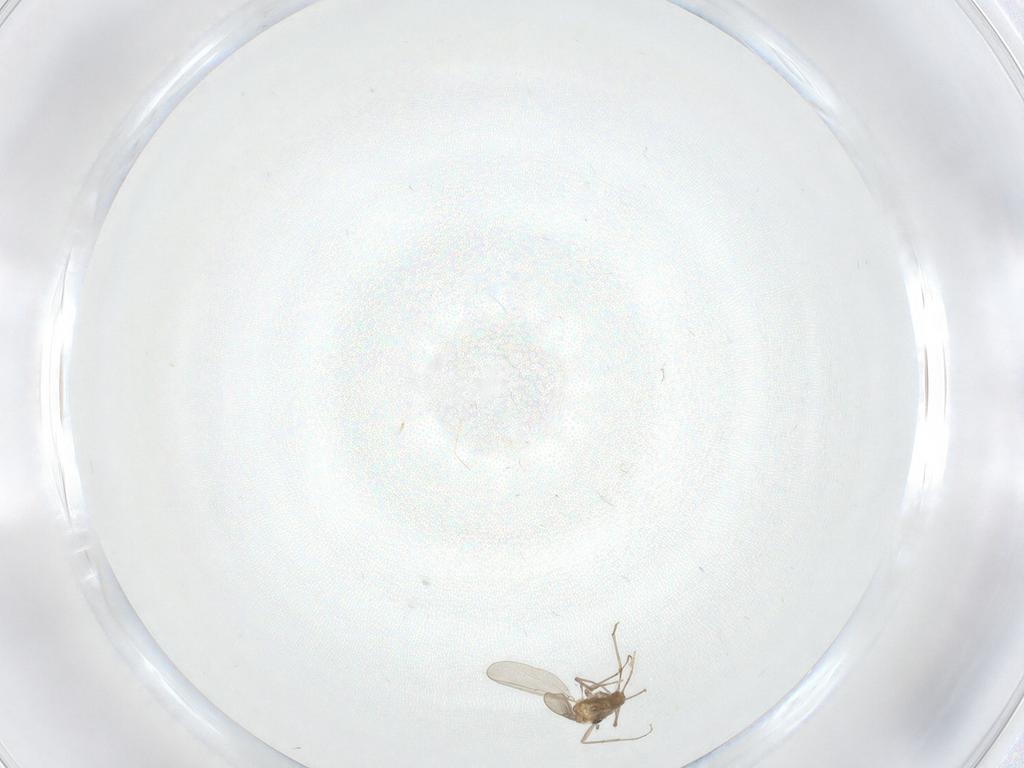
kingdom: Animalia
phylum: Arthropoda
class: Insecta
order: Diptera
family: Chironomidae
